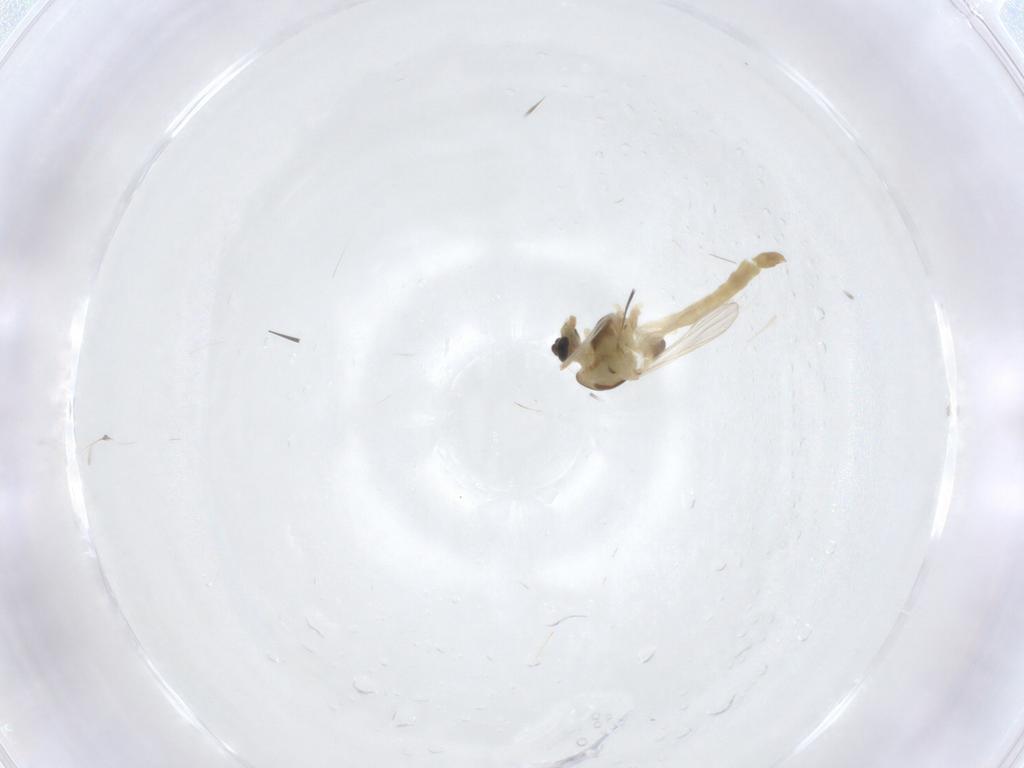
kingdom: Animalia
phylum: Arthropoda
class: Insecta
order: Diptera
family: Chironomidae
